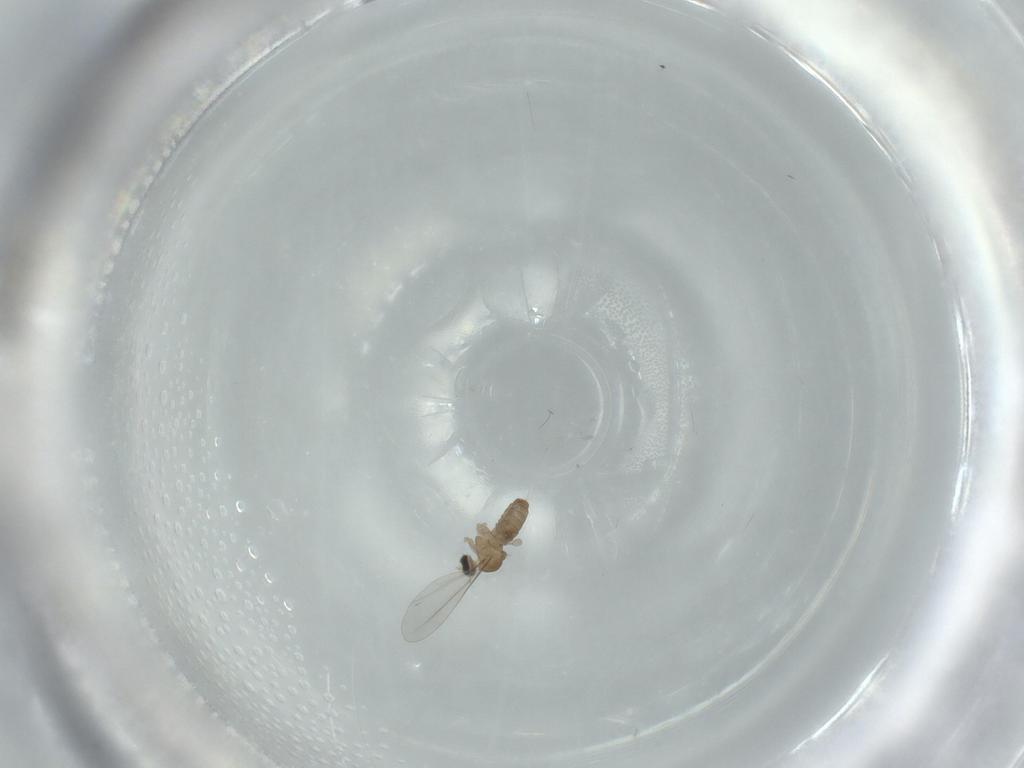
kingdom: Animalia
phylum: Arthropoda
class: Insecta
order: Diptera
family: Cecidomyiidae
